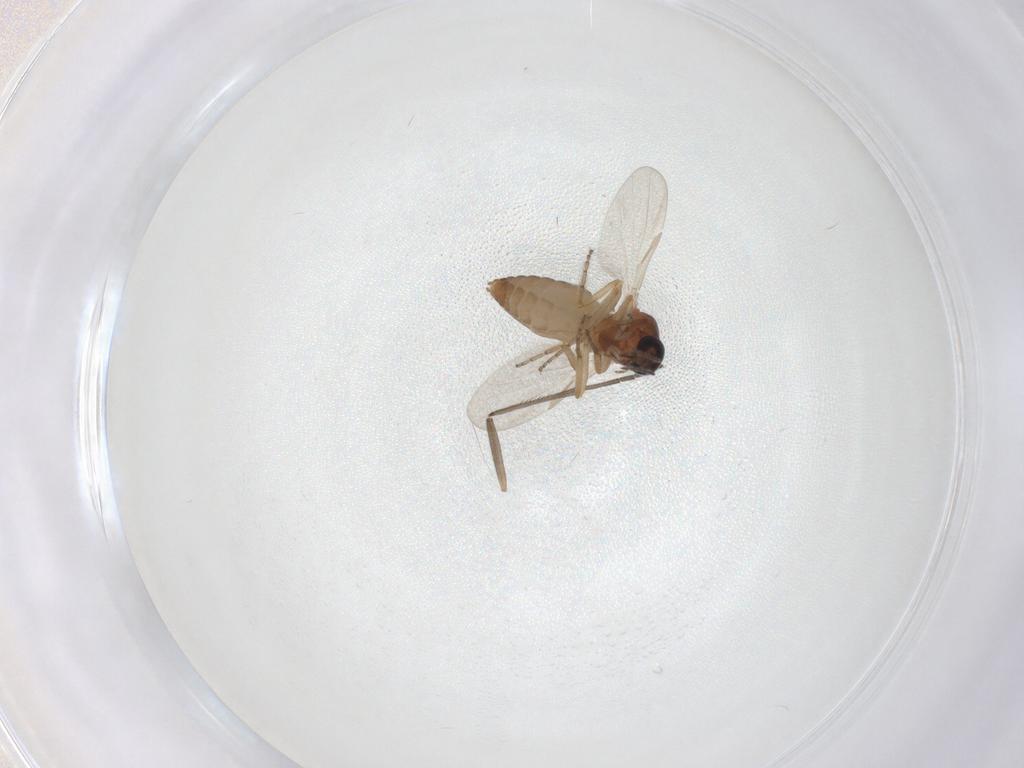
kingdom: Animalia
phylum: Arthropoda
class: Insecta
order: Diptera
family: Ceratopogonidae
